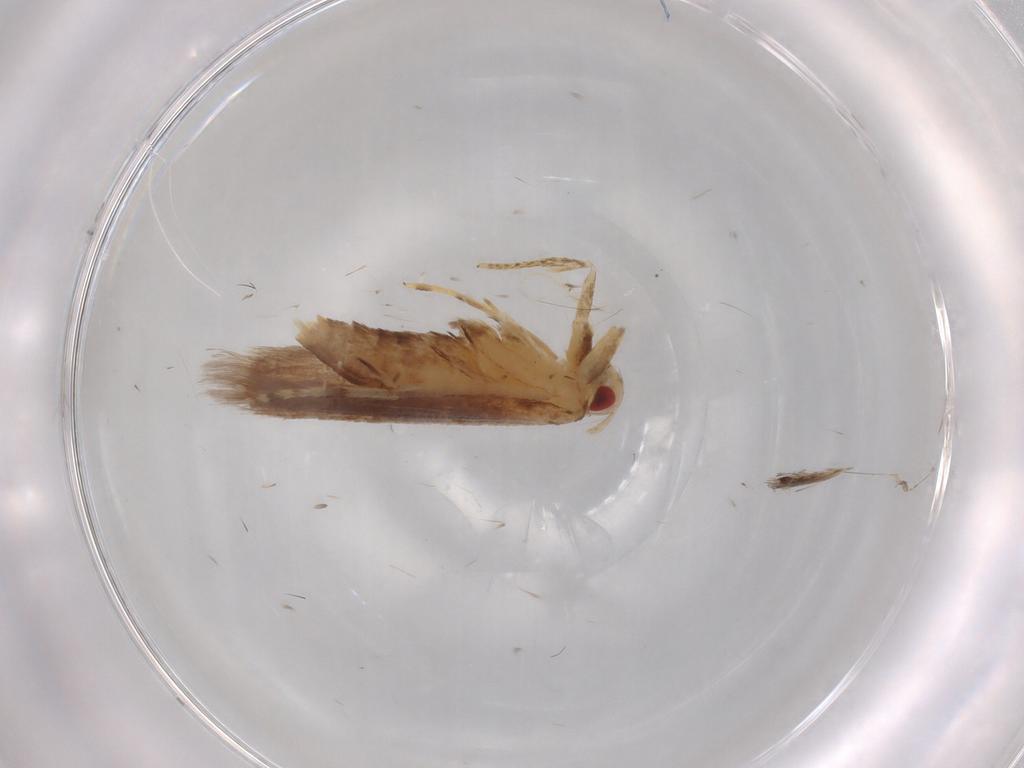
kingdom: Animalia
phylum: Arthropoda
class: Insecta
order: Lepidoptera
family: Cosmopterigidae
